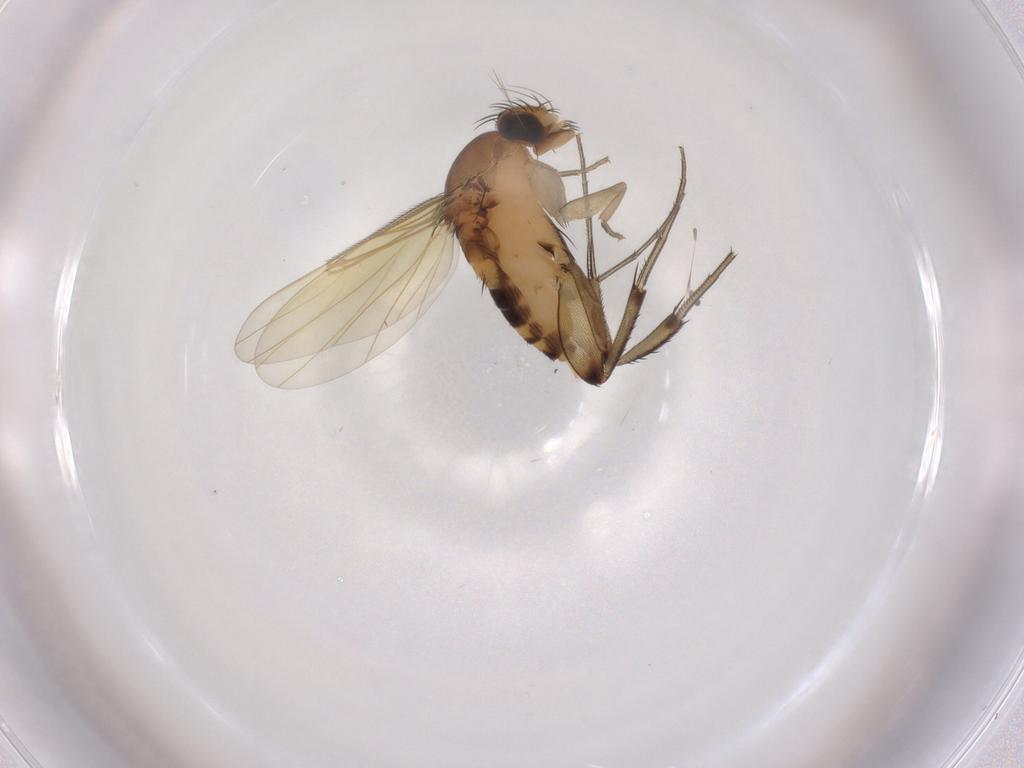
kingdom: Animalia
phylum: Arthropoda
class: Insecta
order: Diptera
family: Phoridae
